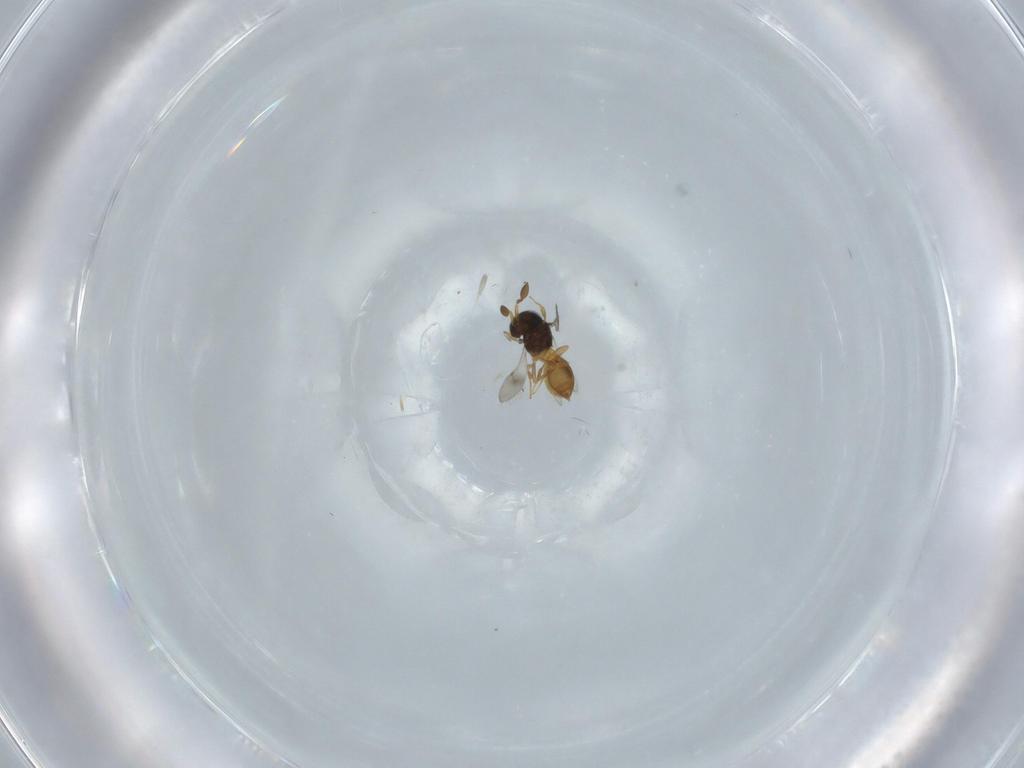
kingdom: Animalia
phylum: Arthropoda
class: Insecta
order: Hymenoptera
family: Scelionidae
